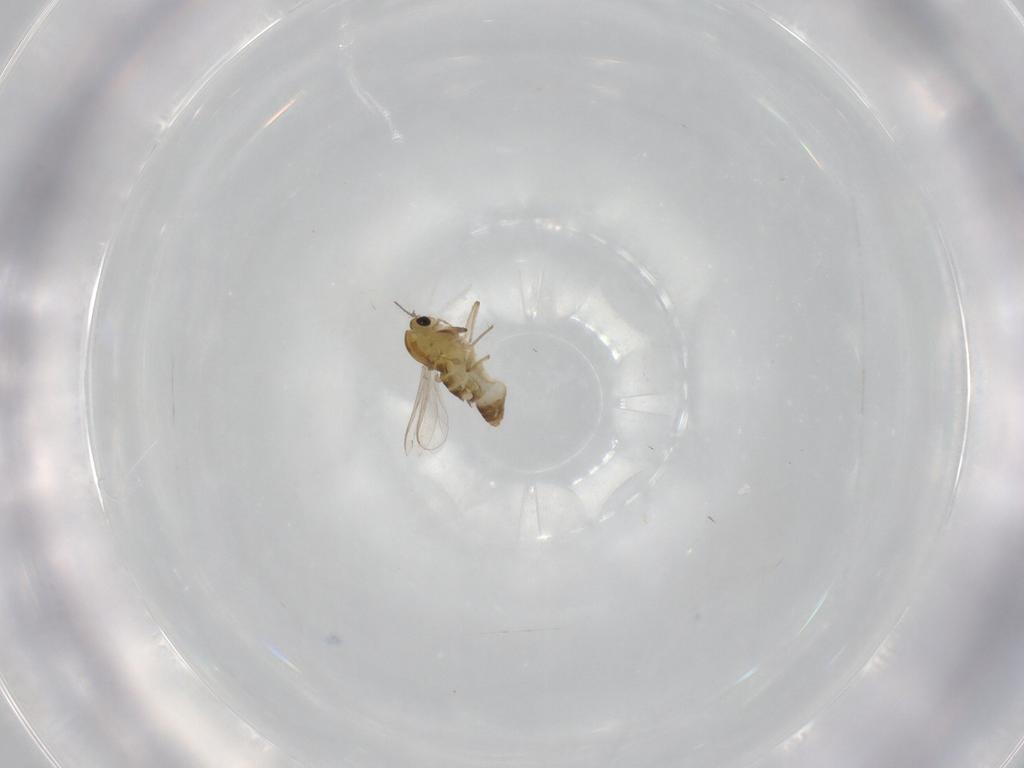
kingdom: Animalia
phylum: Arthropoda
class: Insecta
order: Diptera
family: Chironomidae
